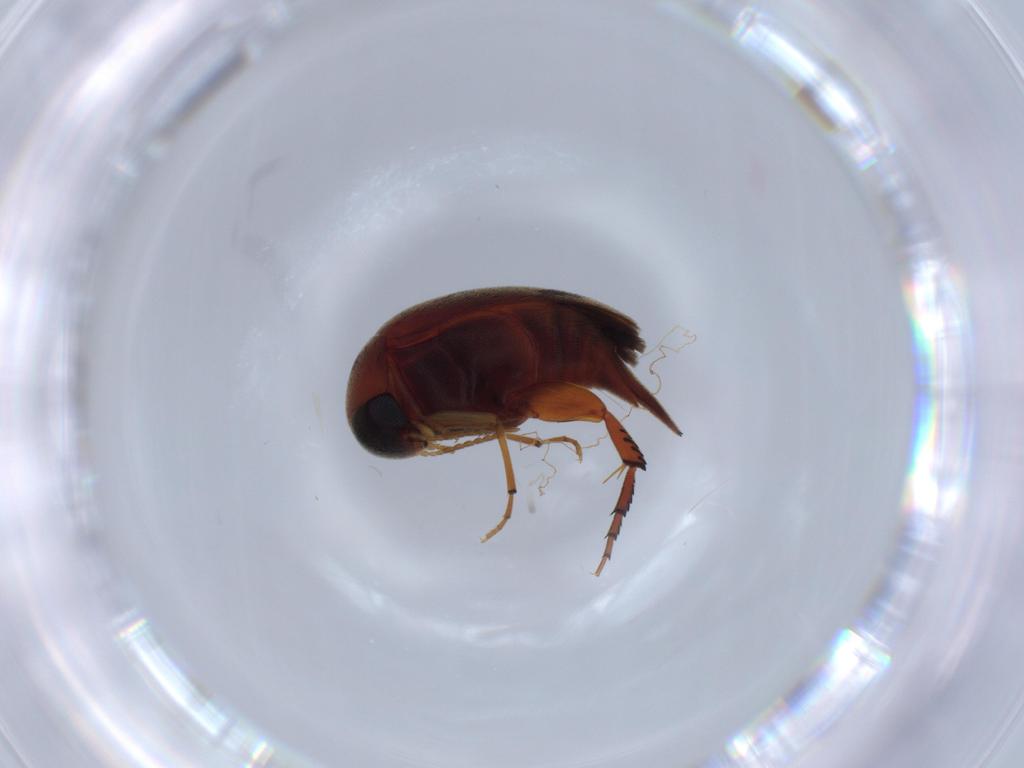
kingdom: Animalia
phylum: Arthropoda
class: Insecta
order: Coleoptera
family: Mordellidae
